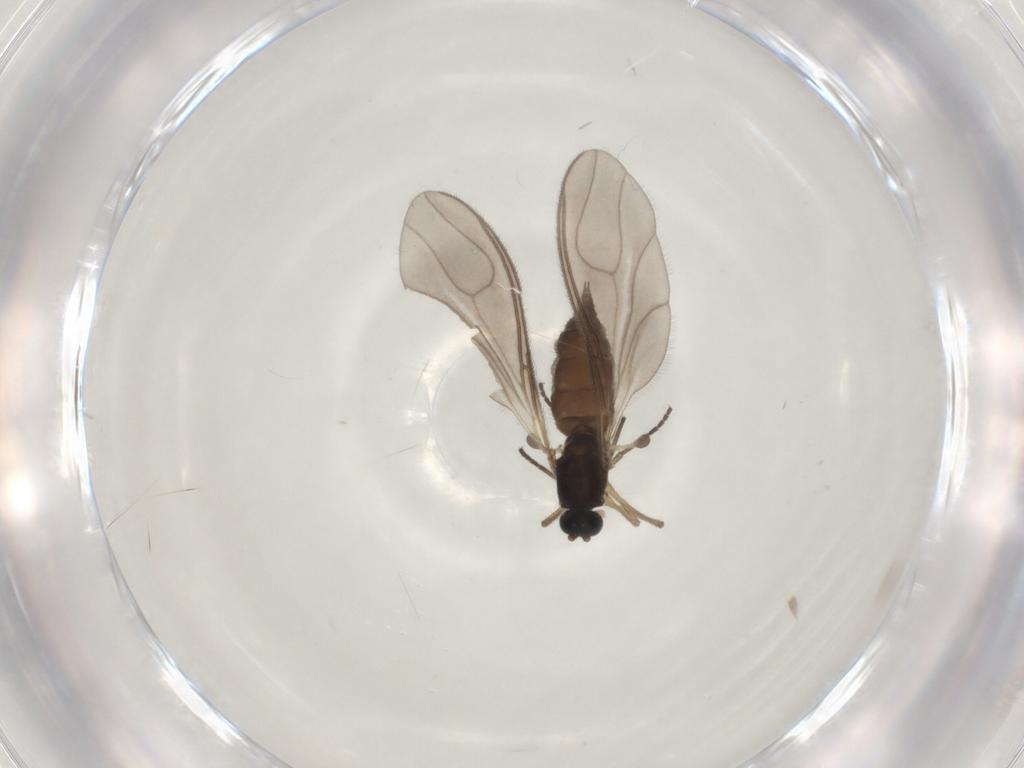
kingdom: Animalia
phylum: Arthropoda
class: Insecta
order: Diptera
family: Sciaridae
